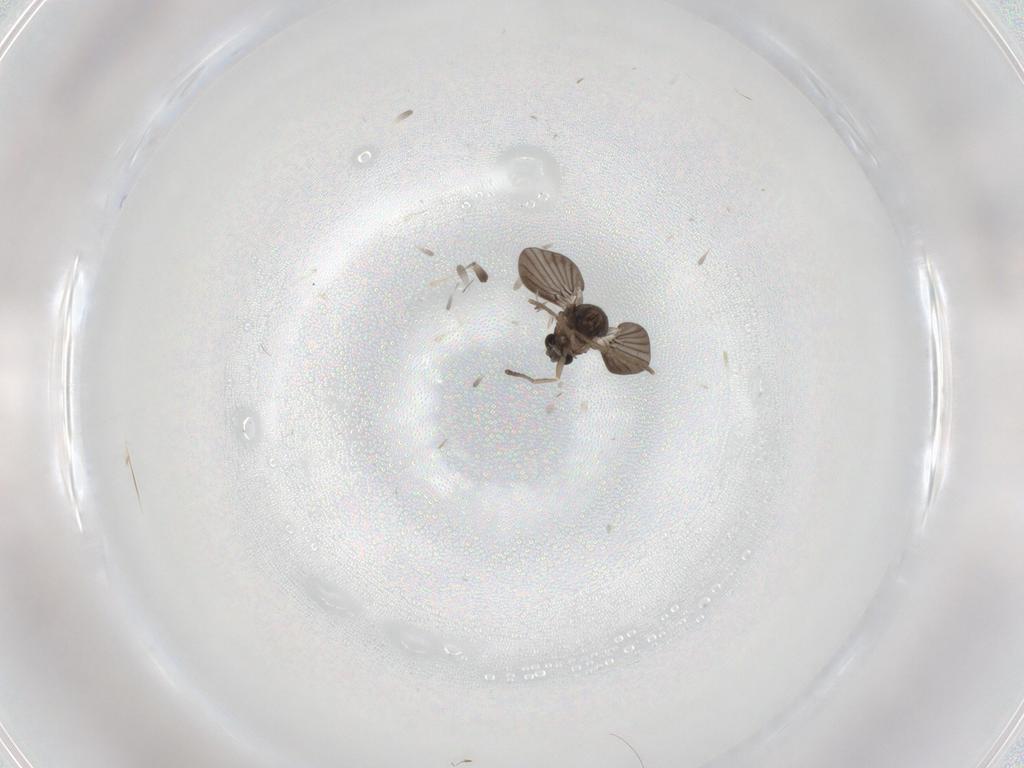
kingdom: Animalia
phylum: Arthropoda
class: Insecta
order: Diptera
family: Cecidomyiidae
